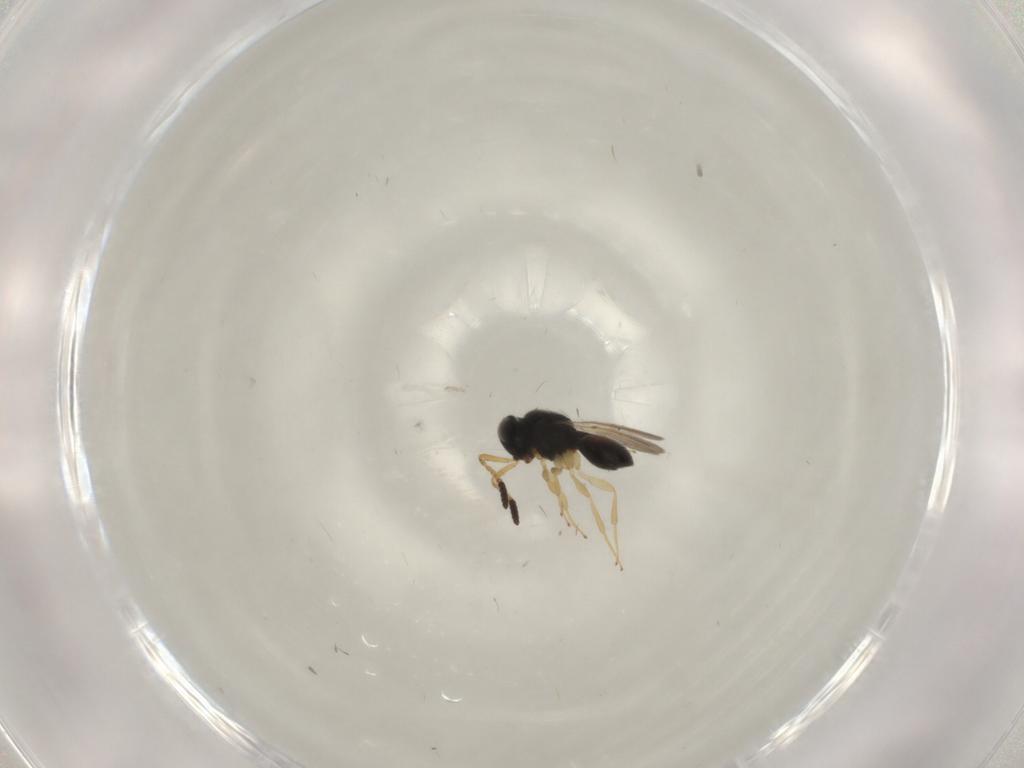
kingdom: Animalia
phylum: Arthropoda
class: Insecta
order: Hymenoptera
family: Scelionidae
